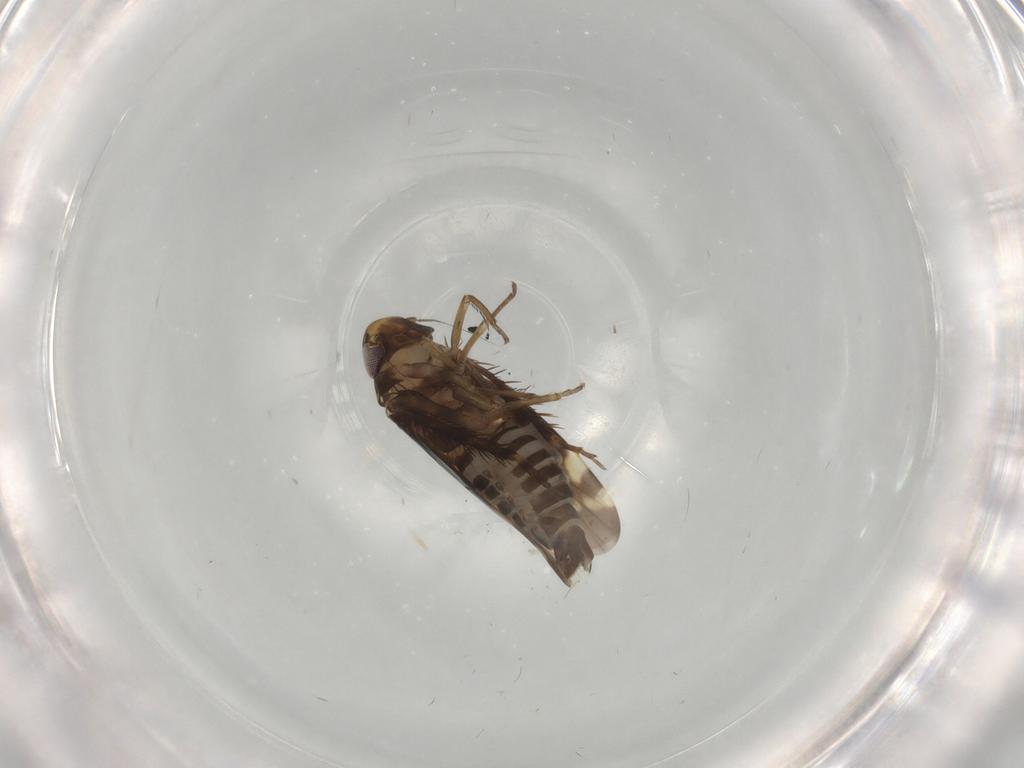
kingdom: Animalia
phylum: Arthropoda
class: Insecta
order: Hemiptera
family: Cicadellidae
